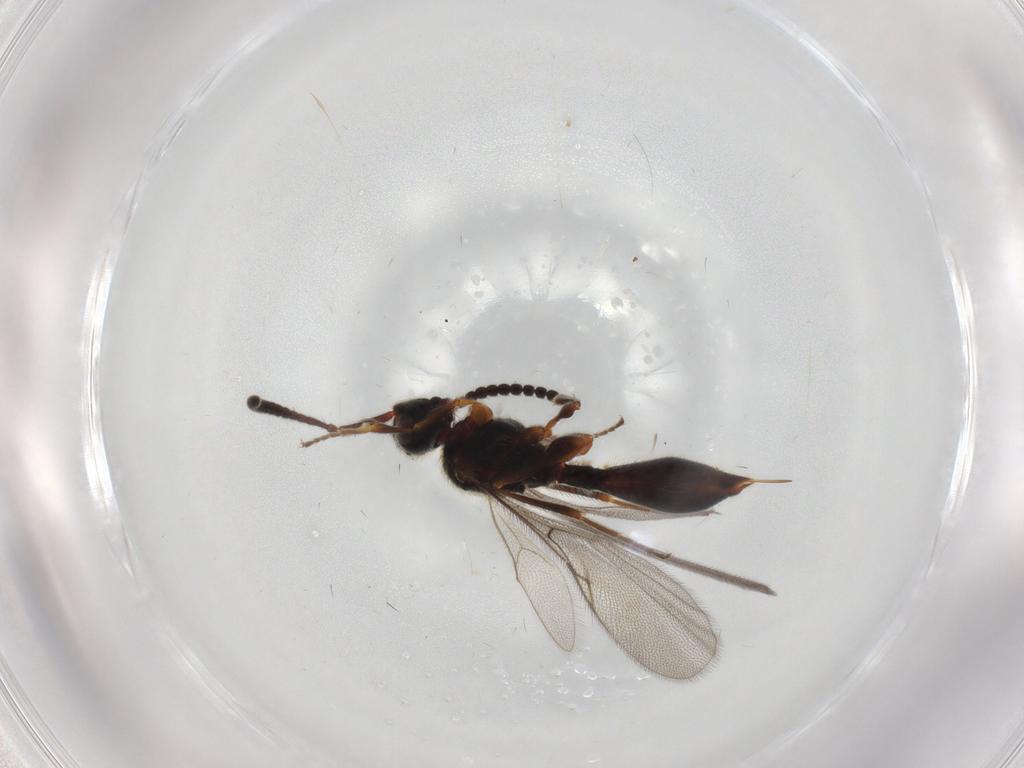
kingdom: Animalia
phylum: Arthropoda
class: Insecta
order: Hymenoptera
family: Diapriidae
